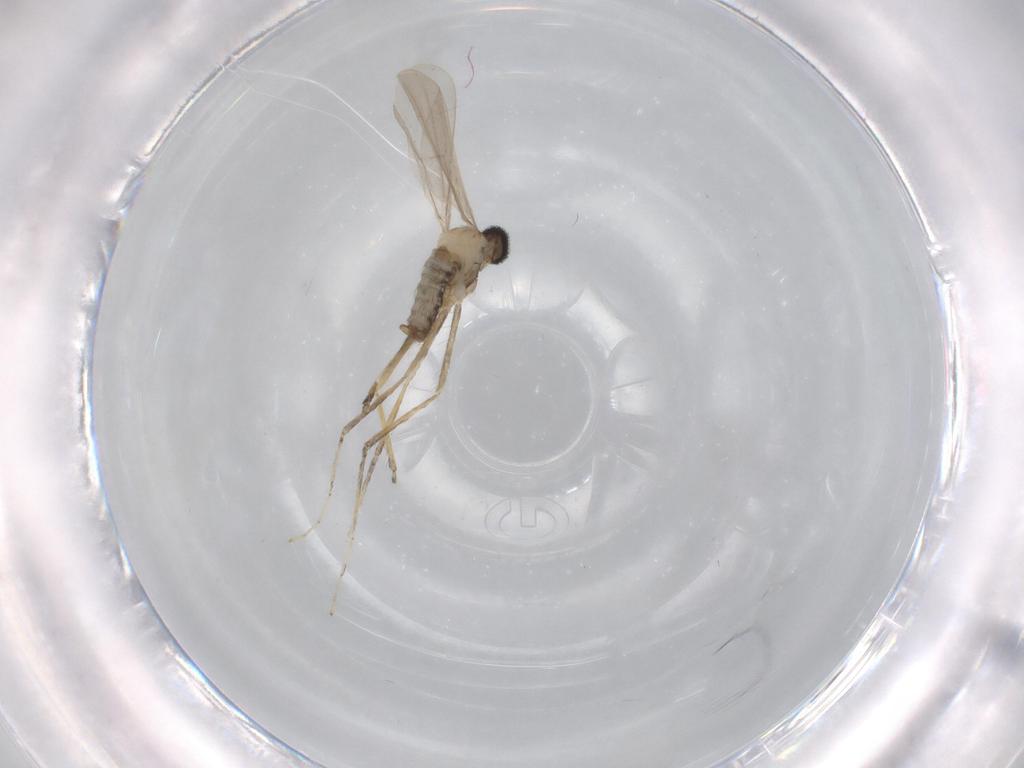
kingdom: Animalia
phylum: Arthropoda
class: Insecta
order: Diptera
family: Cecidomyiidae
